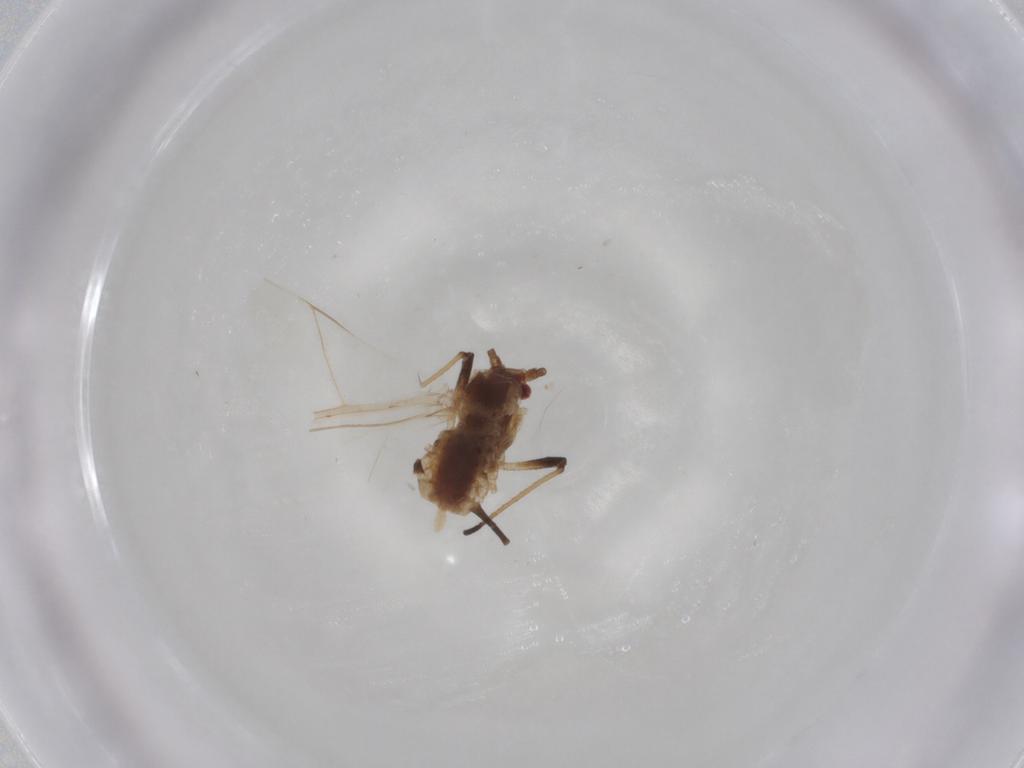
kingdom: Animalia
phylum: Arthropoda
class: Insecta
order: Hemiptera
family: Aphididae
